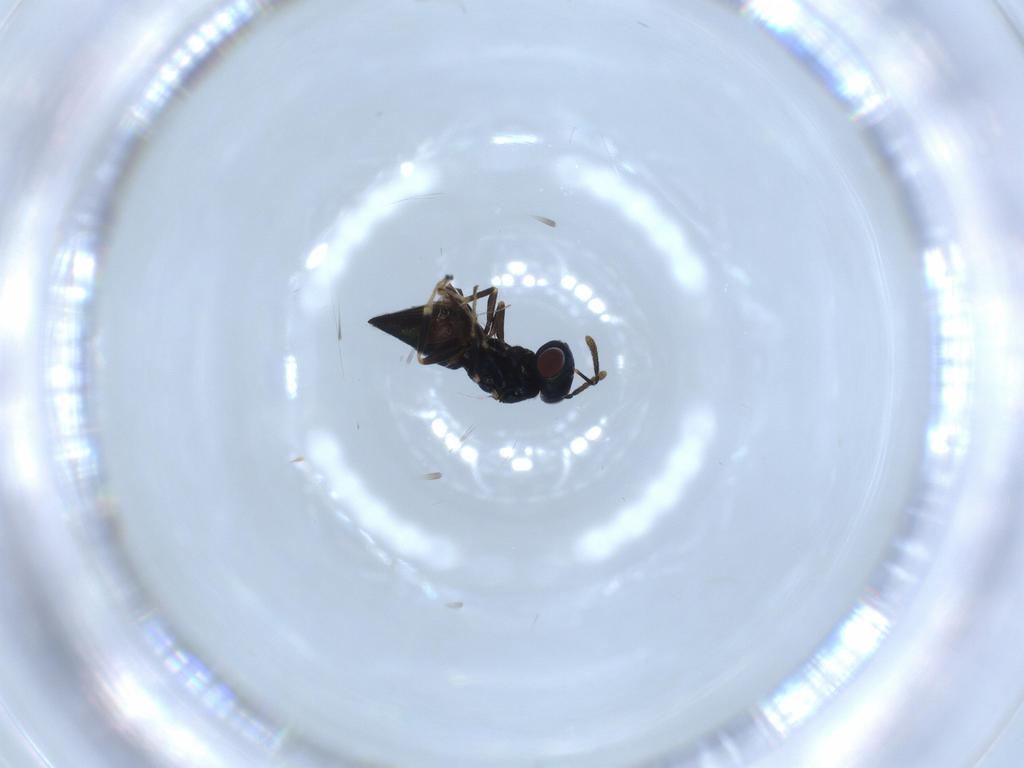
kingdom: Animalia
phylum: Arthropoda
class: Insecta
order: Hymenoptera
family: Pteromalidae
